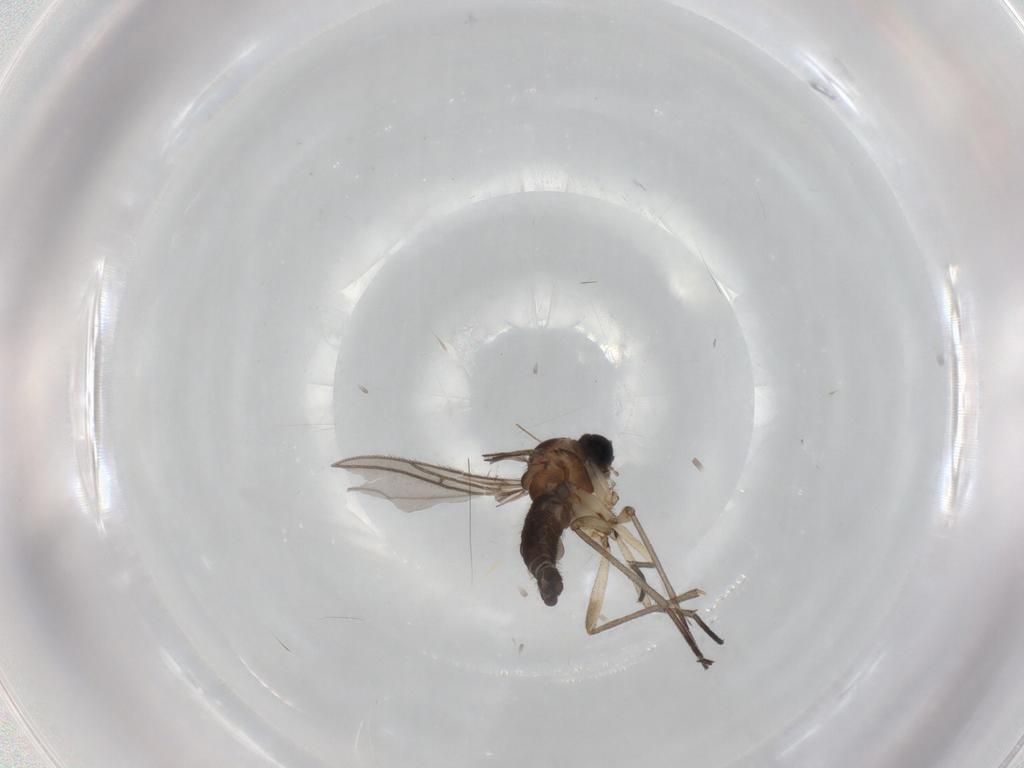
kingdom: Animalia
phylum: Arthropoda
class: Insecta
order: Diptera
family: Sciaridae
